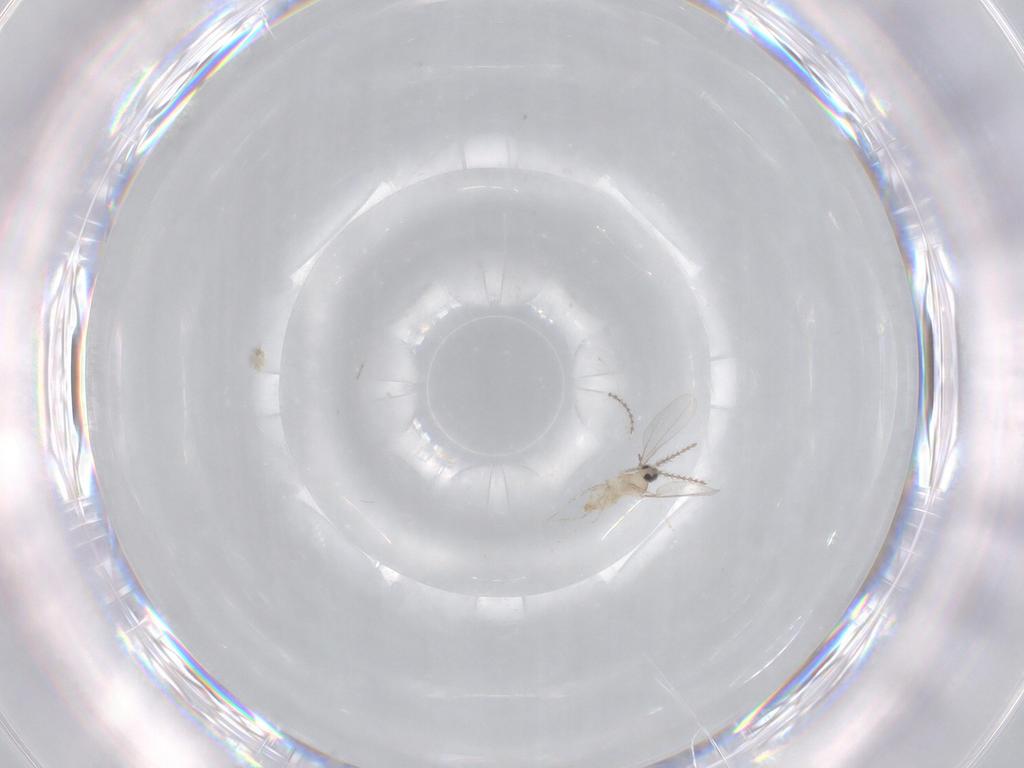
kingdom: Animalia
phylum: Arthropoda
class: Insecta
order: Diptera
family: Cecidomyiidae
